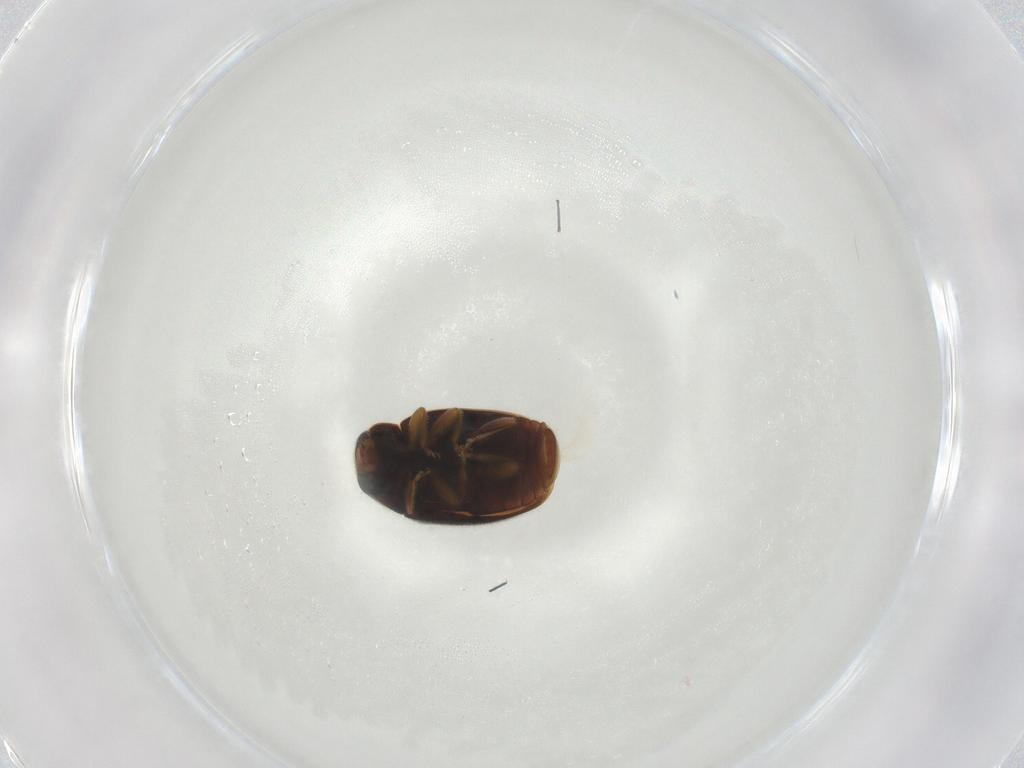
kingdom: Animalia
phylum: Arthropoda
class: Insecta
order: Coleoptera
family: Coccinellidae
